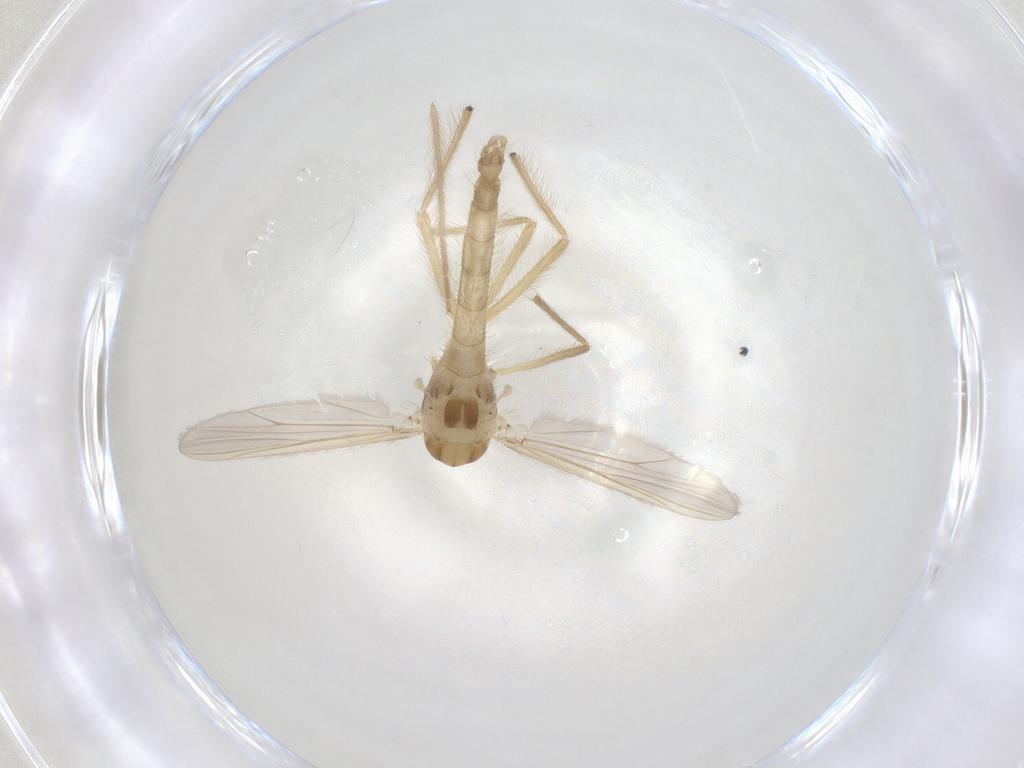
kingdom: Animalia
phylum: Arthropoda
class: Insecta
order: Diptera
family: Chironomidae
